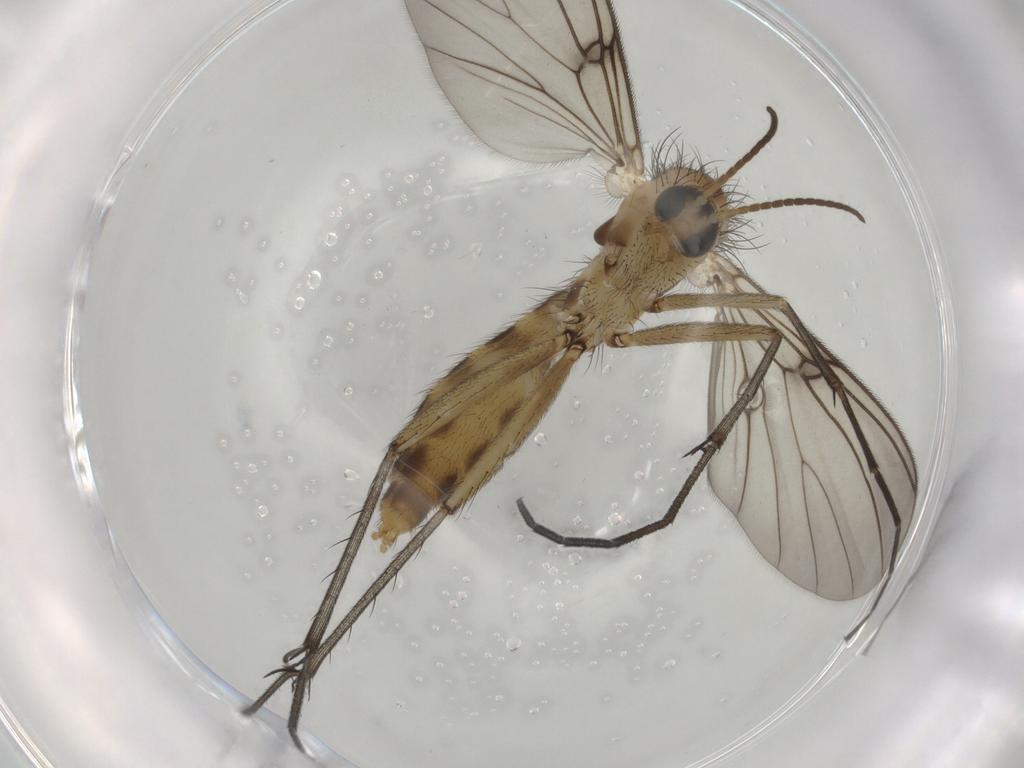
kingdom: Animalia
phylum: Arthropoda
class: Insecta
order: Diptera
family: Mycetophilidae
